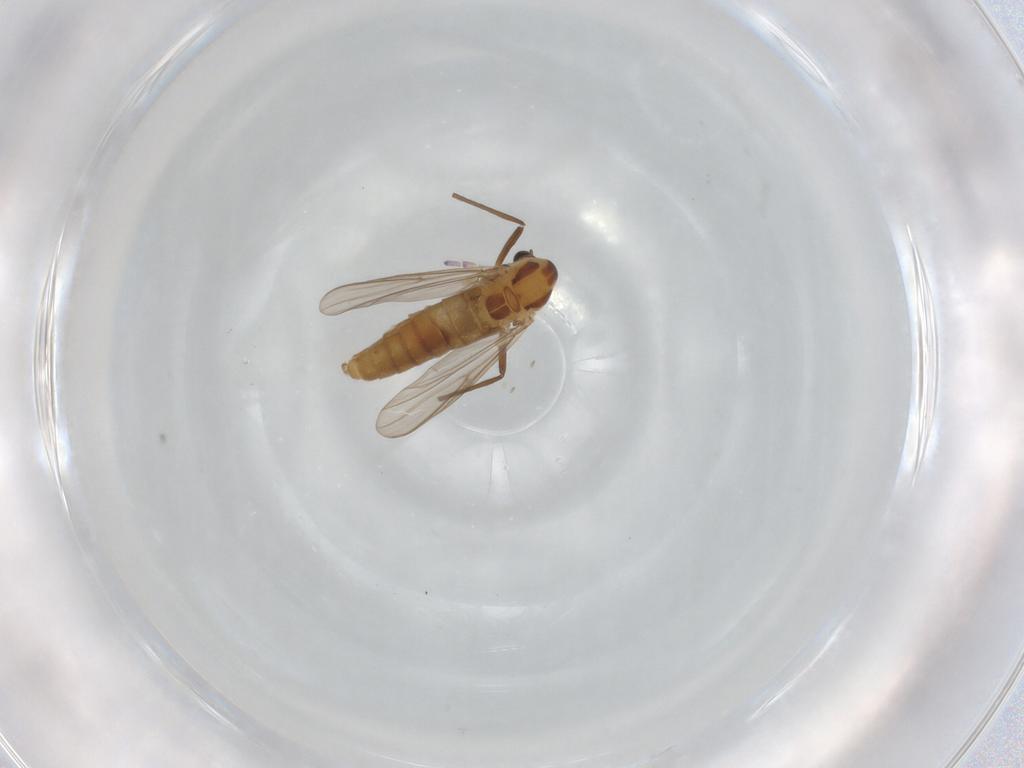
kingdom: Animalia
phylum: Arthropoda
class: Insecta
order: Diptera
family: Chironomidae
